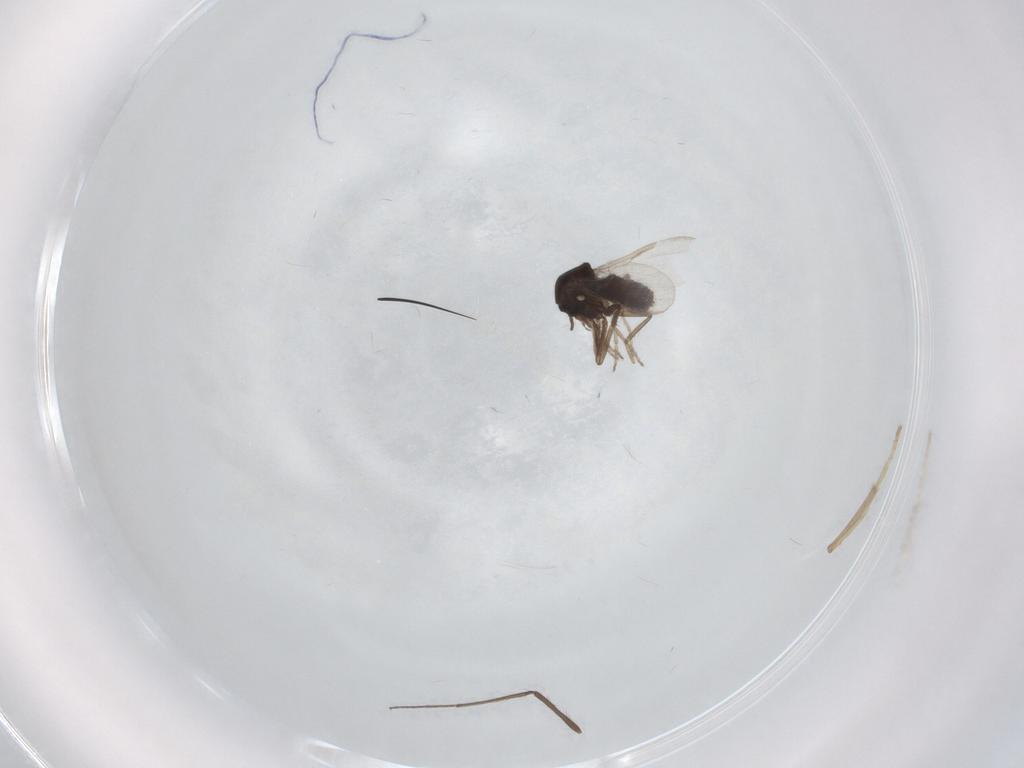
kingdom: Animalia
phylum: Arthropoda
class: Insecta
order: Diptera
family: Ceratopogonidae
